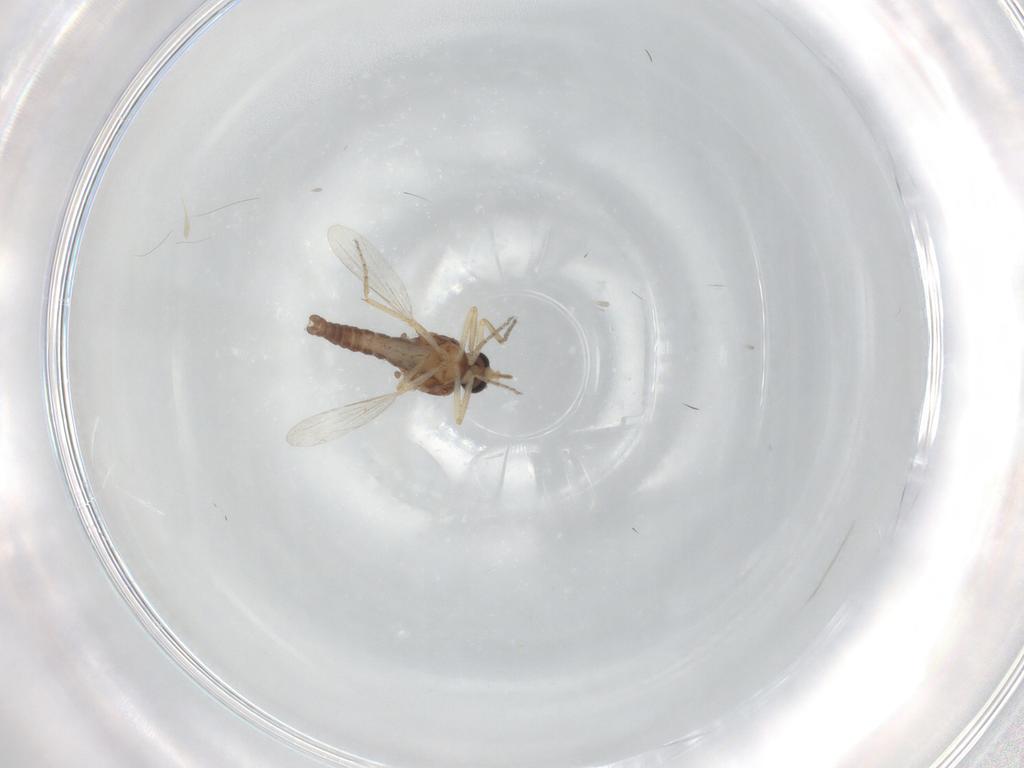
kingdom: Animalia
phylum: Arthropoda
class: Insecta
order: Diptera
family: Ceratopogonidae
